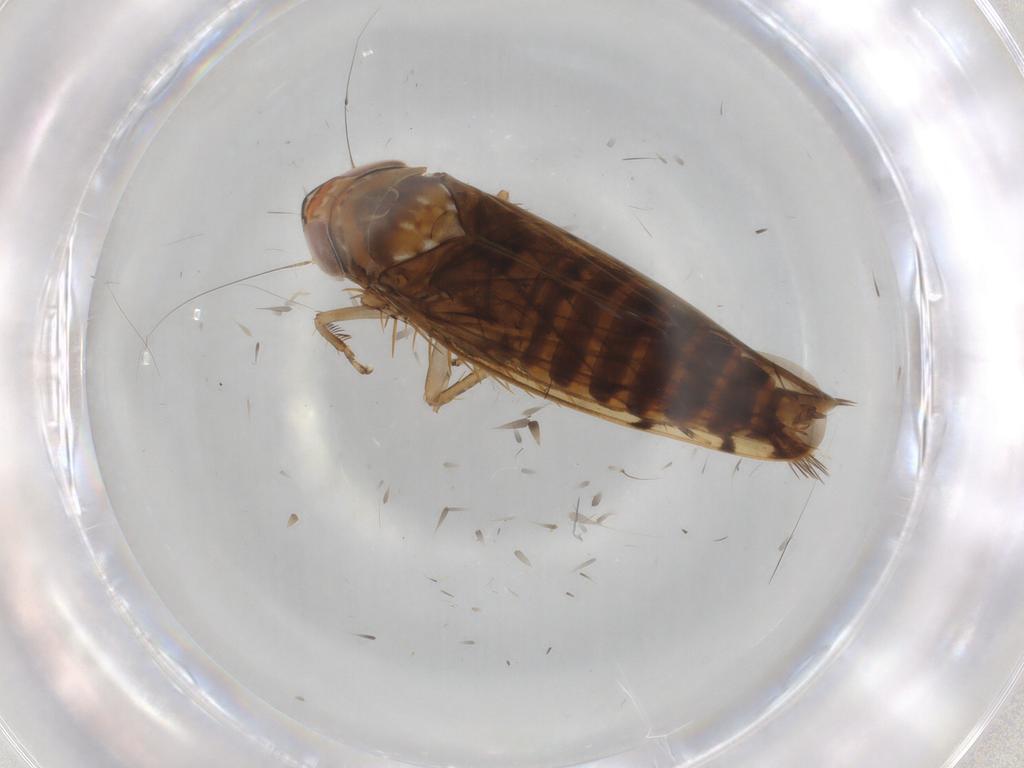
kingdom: Animalia
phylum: Arthropoda
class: Insecta
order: Hemiptera
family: Cicadellidae
